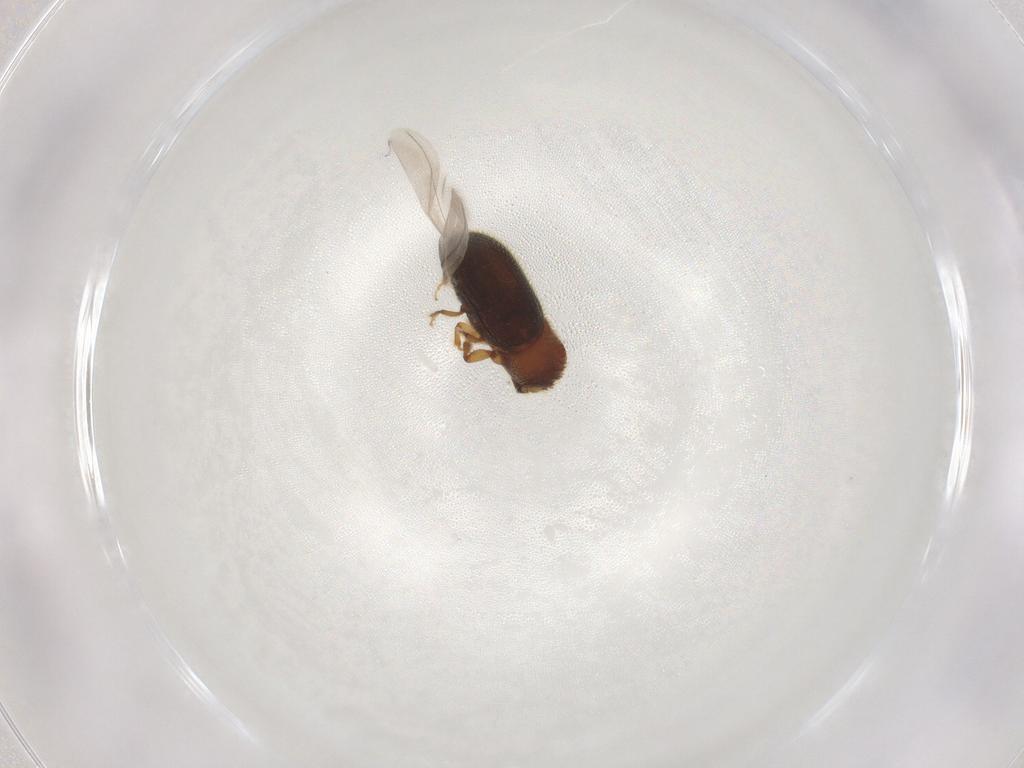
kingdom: Animalia
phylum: Arthropoda
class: Insecta
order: Coleoptera
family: Curculionidae
